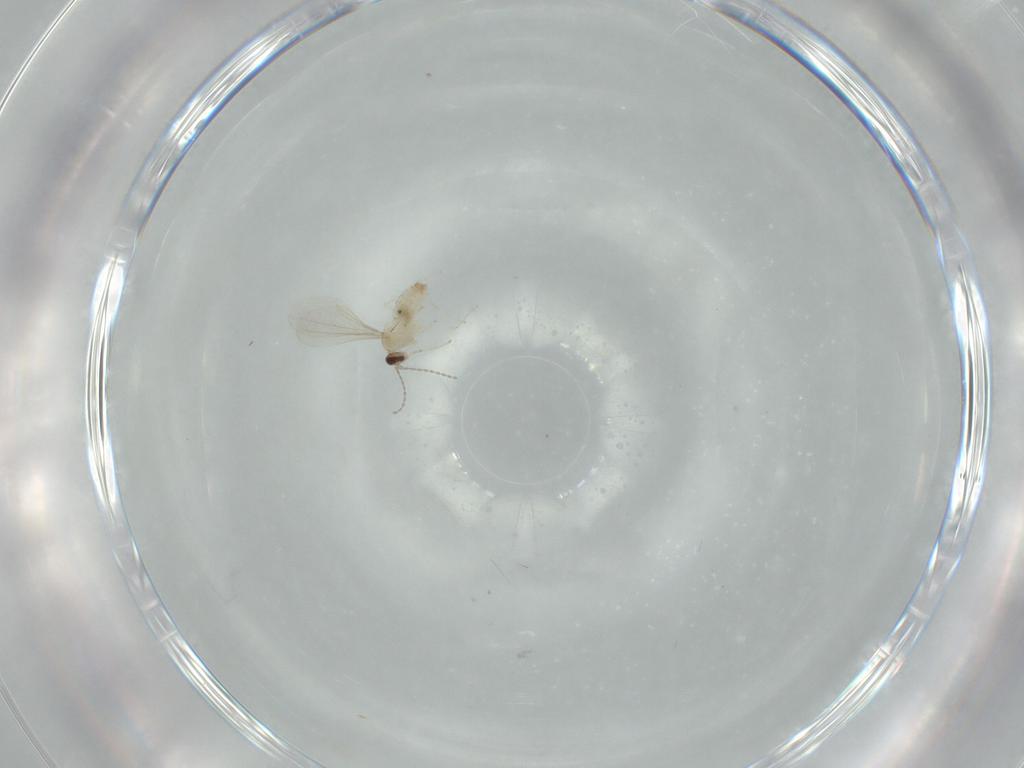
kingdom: Animalia
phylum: Arthropoda
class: Insecta
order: Diptera
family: Cecidomyiidae
